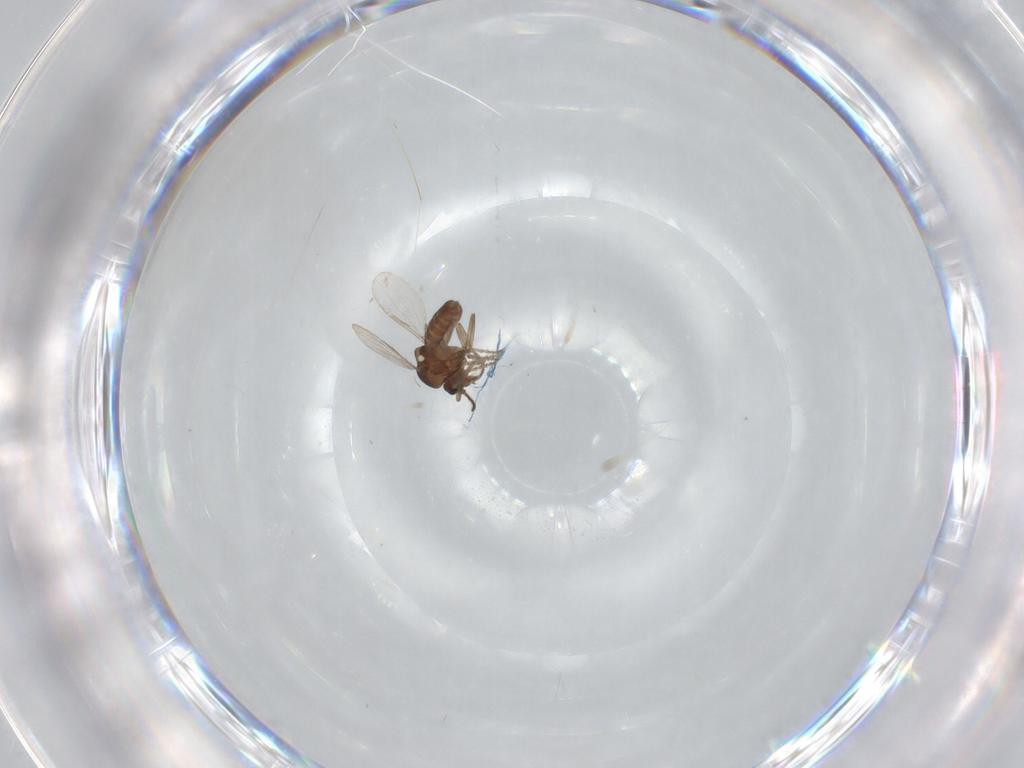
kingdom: Animalia
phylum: Arthropoda
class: Insecta
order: Diptera
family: Ceratopogonidae
